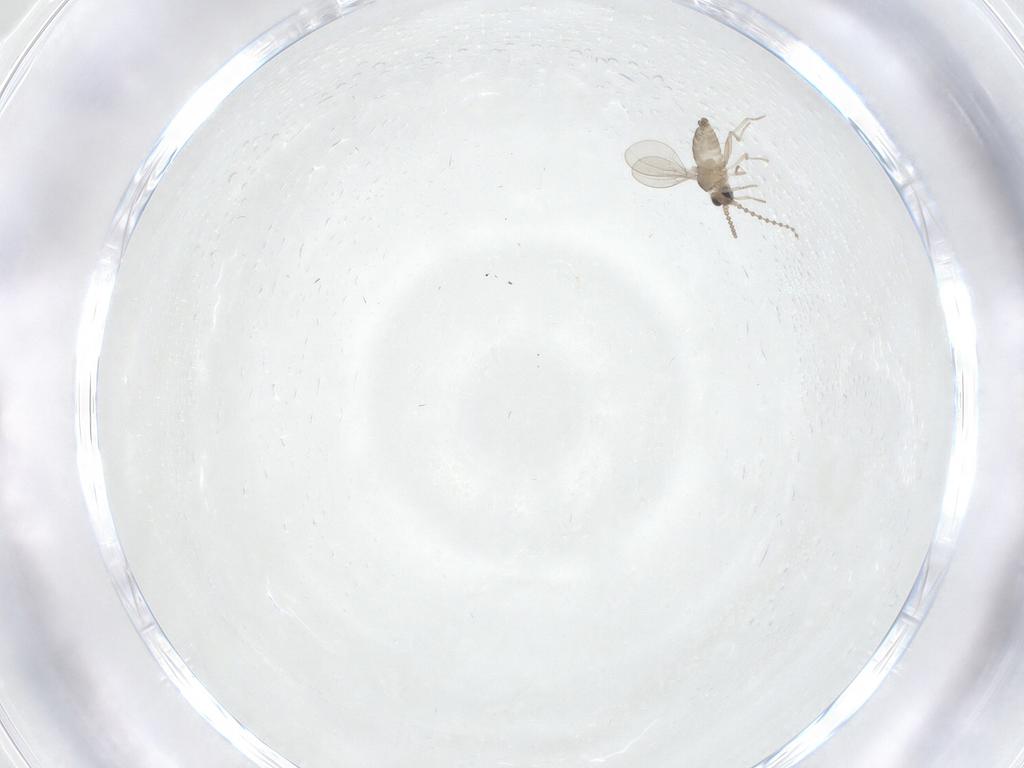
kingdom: Animalia
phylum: Arthropoda
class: Insecta
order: Diptera
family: Cecidomyiidae
